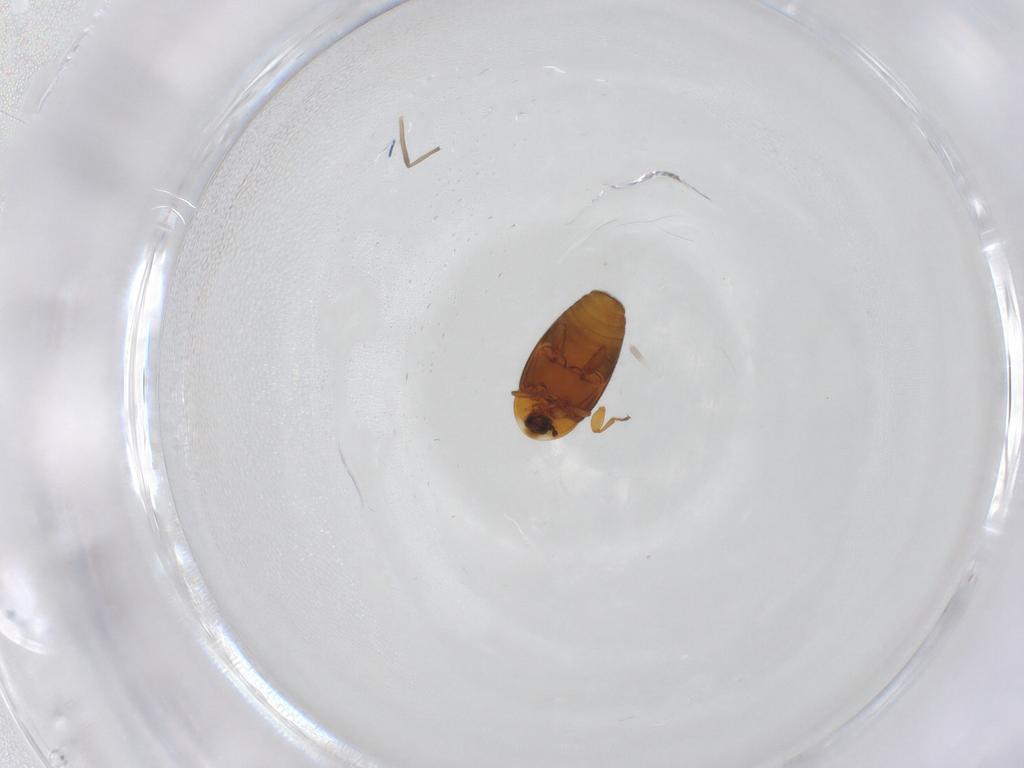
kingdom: Animalia
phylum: Arthropoda
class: Insecta
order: Coleoptera
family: Corylophidae
